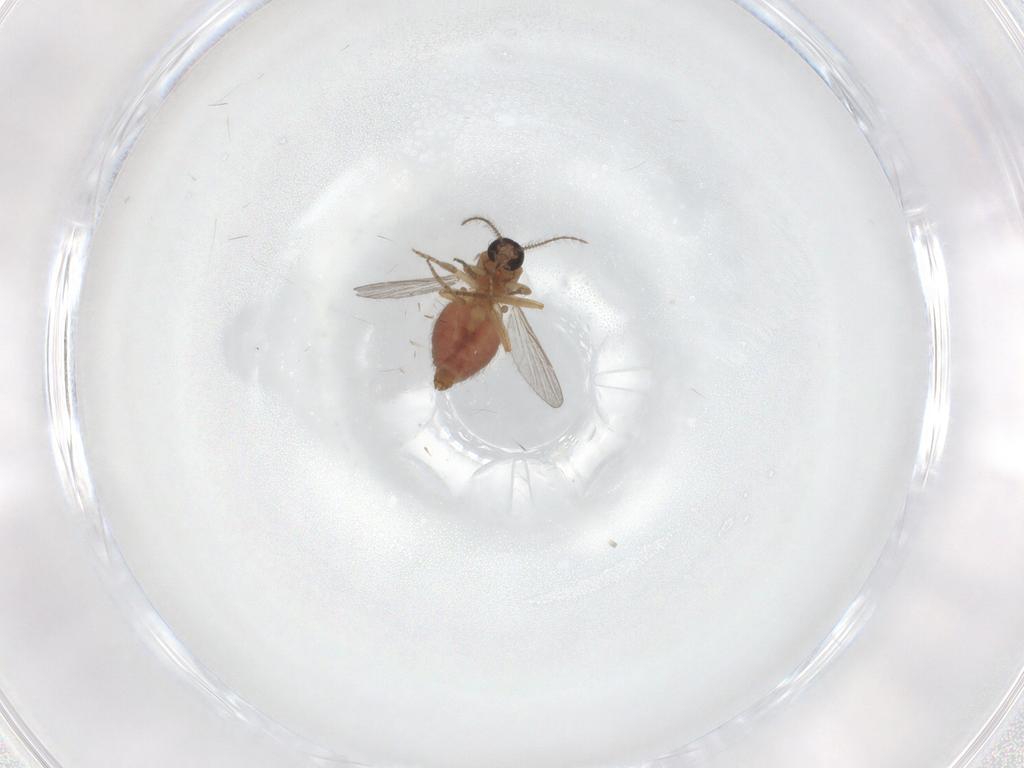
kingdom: Animalia
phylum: Arthropoda
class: Insecta
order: Diptera
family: Ceratopogonidae
